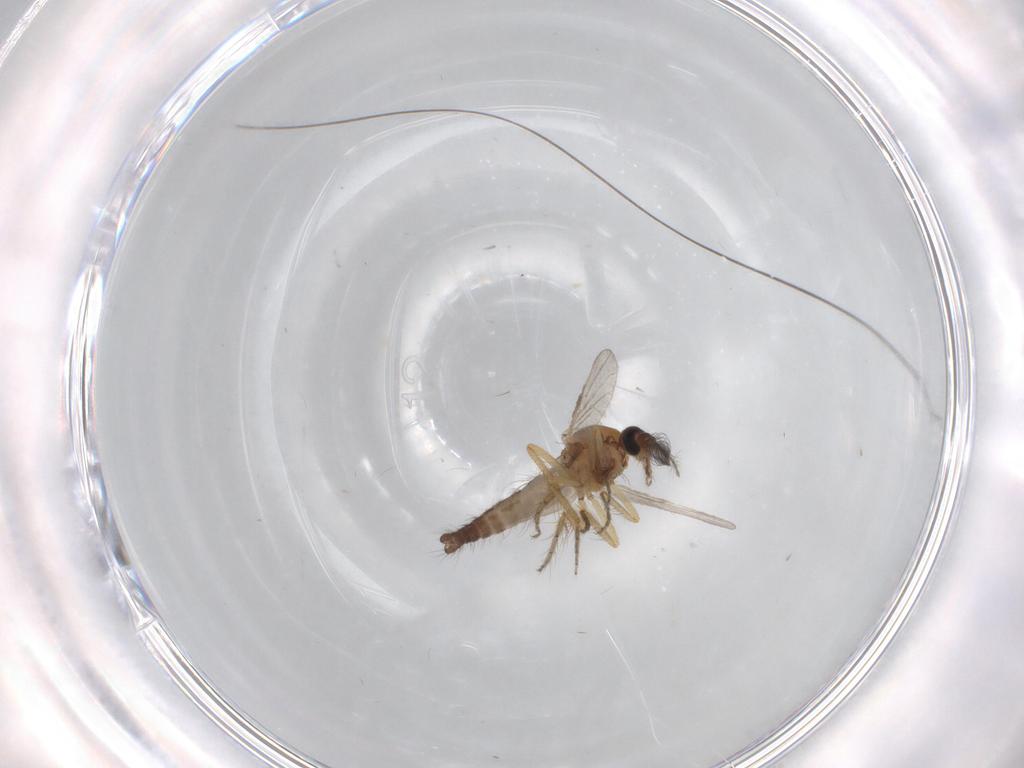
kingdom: Animalia
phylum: Arthropoda
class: Insecta
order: Diptera
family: Ceratopogonidae
